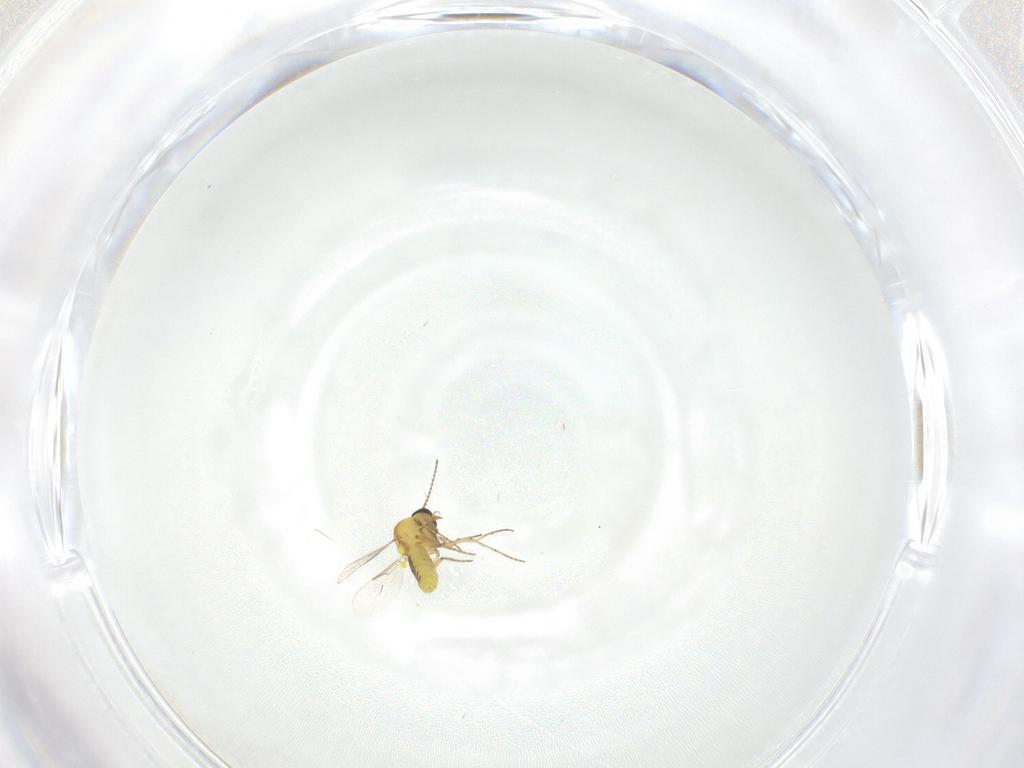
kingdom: Animalia
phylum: Arthropoda
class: Insecta
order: Diptera
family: Ceratopogonidae
